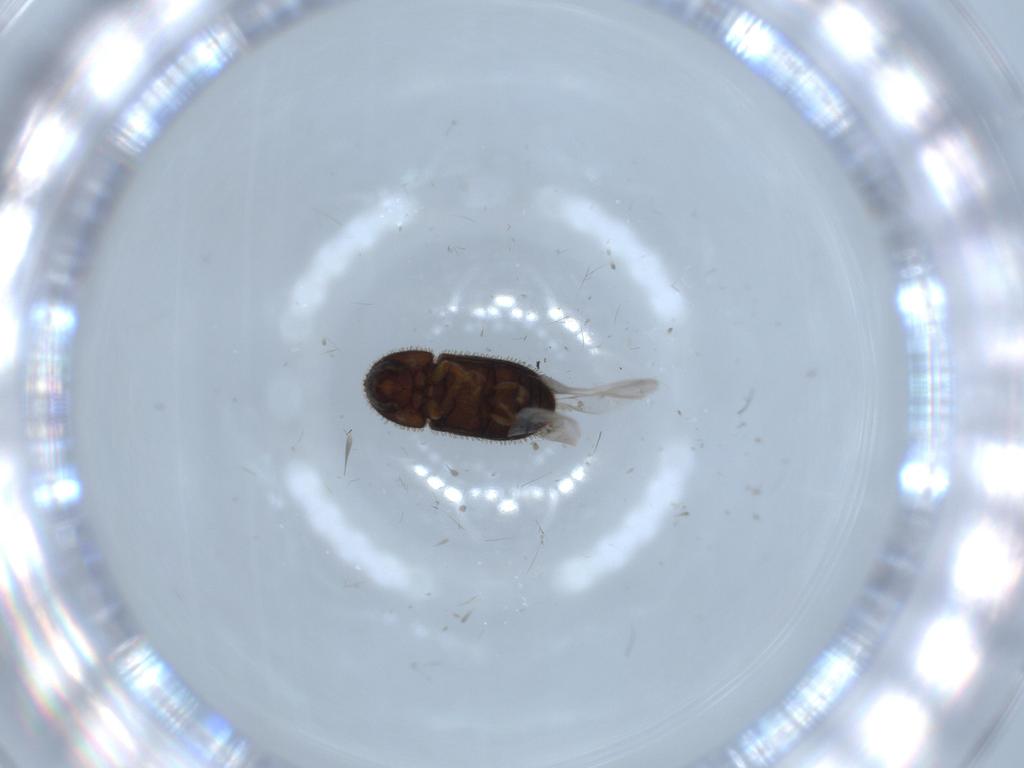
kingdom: Animalia
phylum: Arthropoda
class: Insecta
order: Coleoptera
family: Curculionidae
